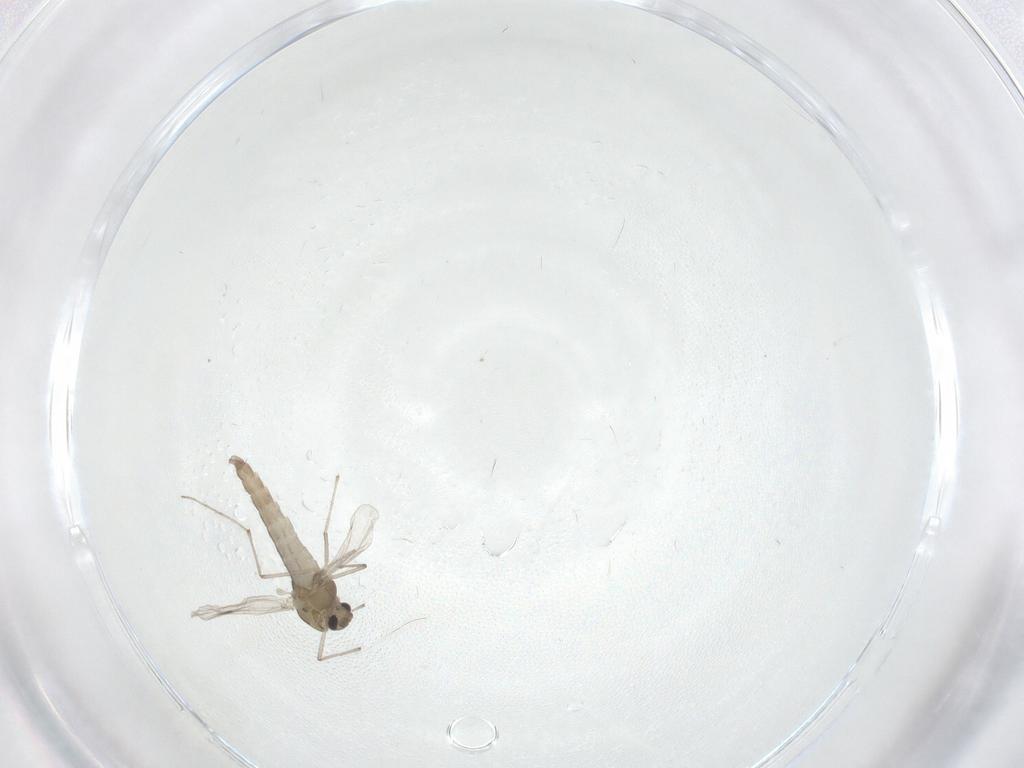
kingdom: Animalia
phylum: Arthropoda
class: Insecta
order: Diptera
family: Chironomidae
